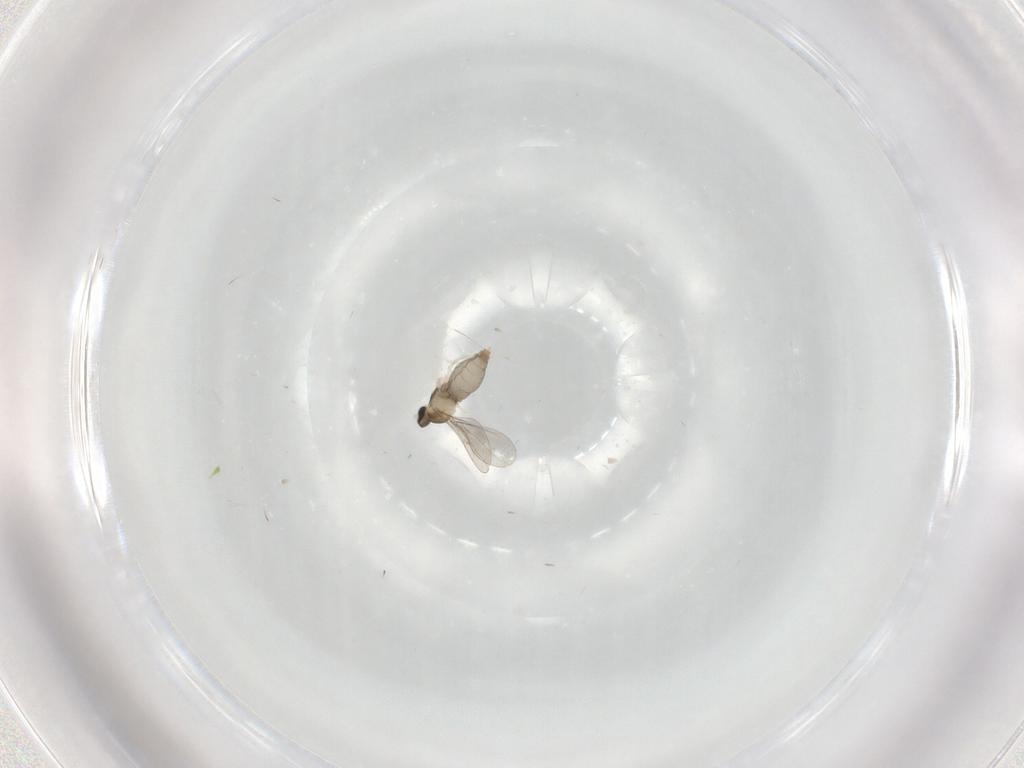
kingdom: Animalia
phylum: Arthropoda
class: Insecta
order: Diptera
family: Cecidomyiidae
